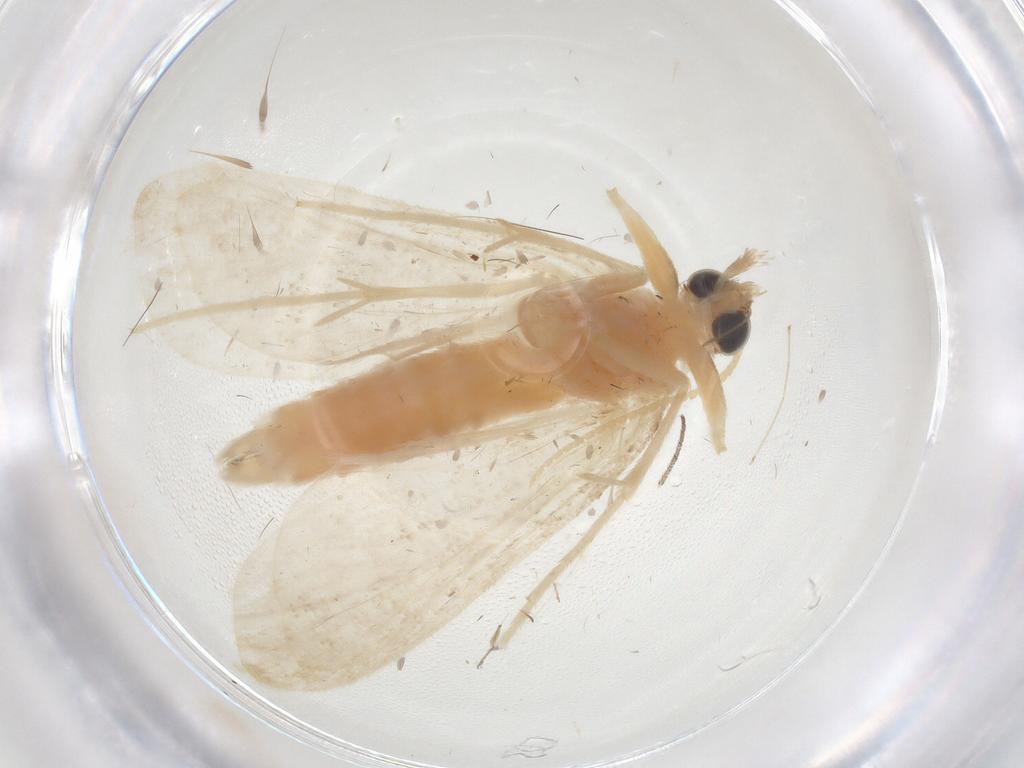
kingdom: Animalia
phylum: Arthropoda
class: Insecta
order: Lepidoptera
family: Crambidae
